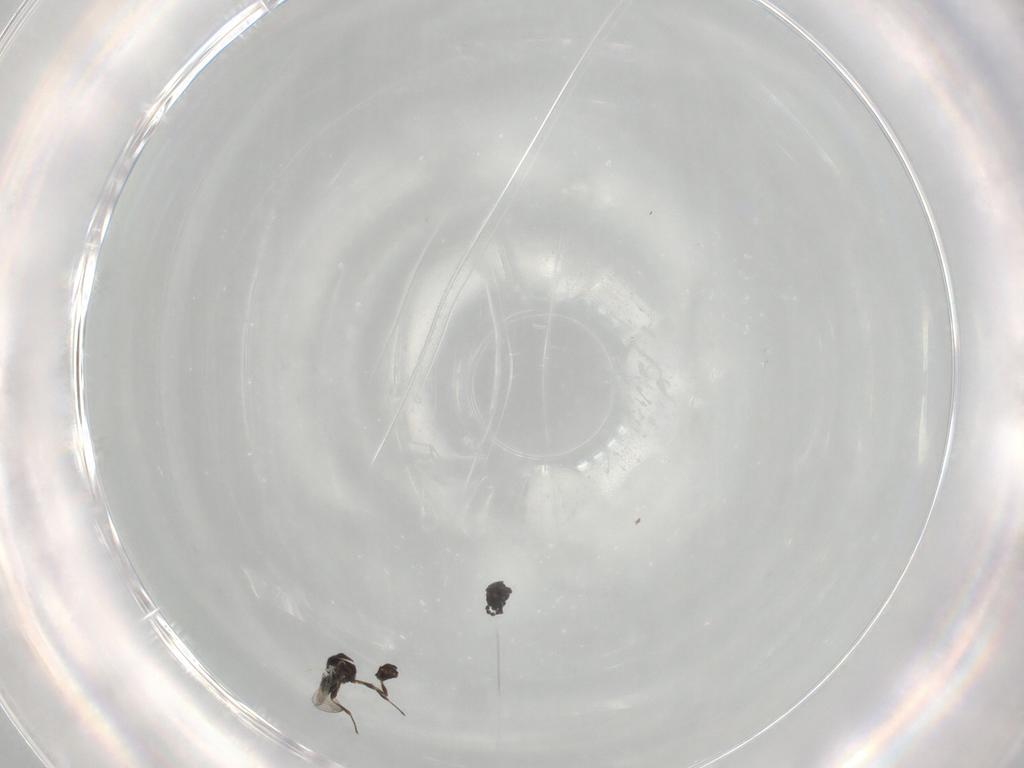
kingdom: Animalia
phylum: Arthropoda
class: Insecta
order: Hymenoptera
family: Platygastridae
